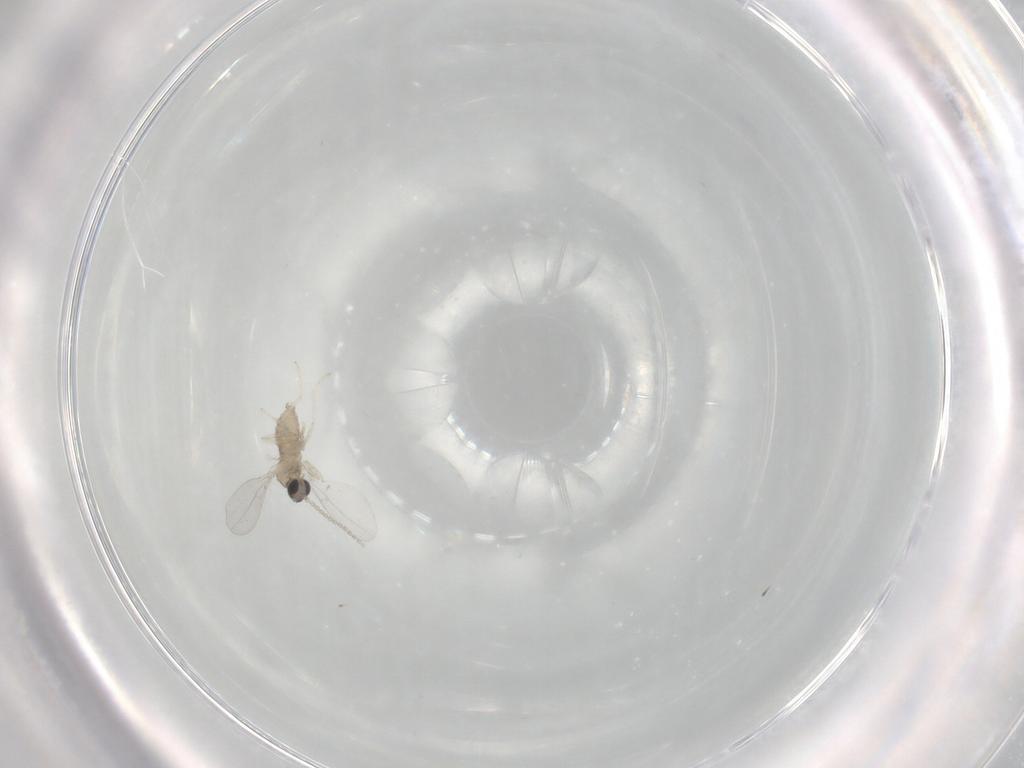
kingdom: Animalia
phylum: Arthropoda
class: Insecta
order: Diptera
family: Cecidomyiidae
